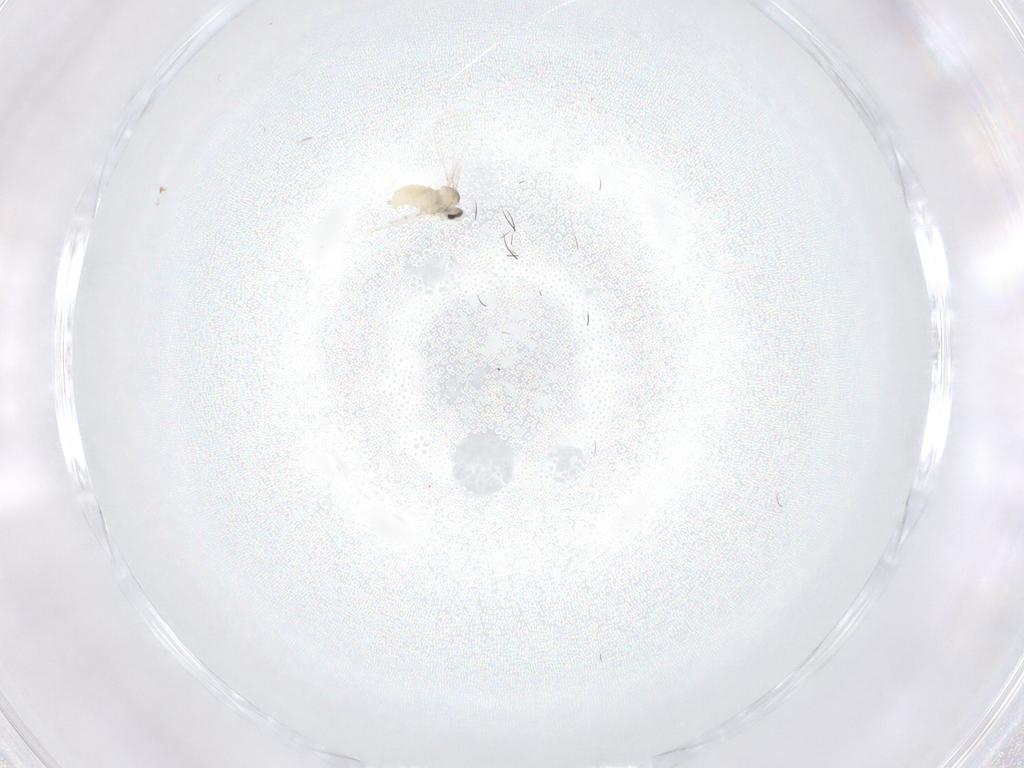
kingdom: Animalia
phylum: Arthropoda
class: Insecta
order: Diptera
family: Cecidomyiidae
